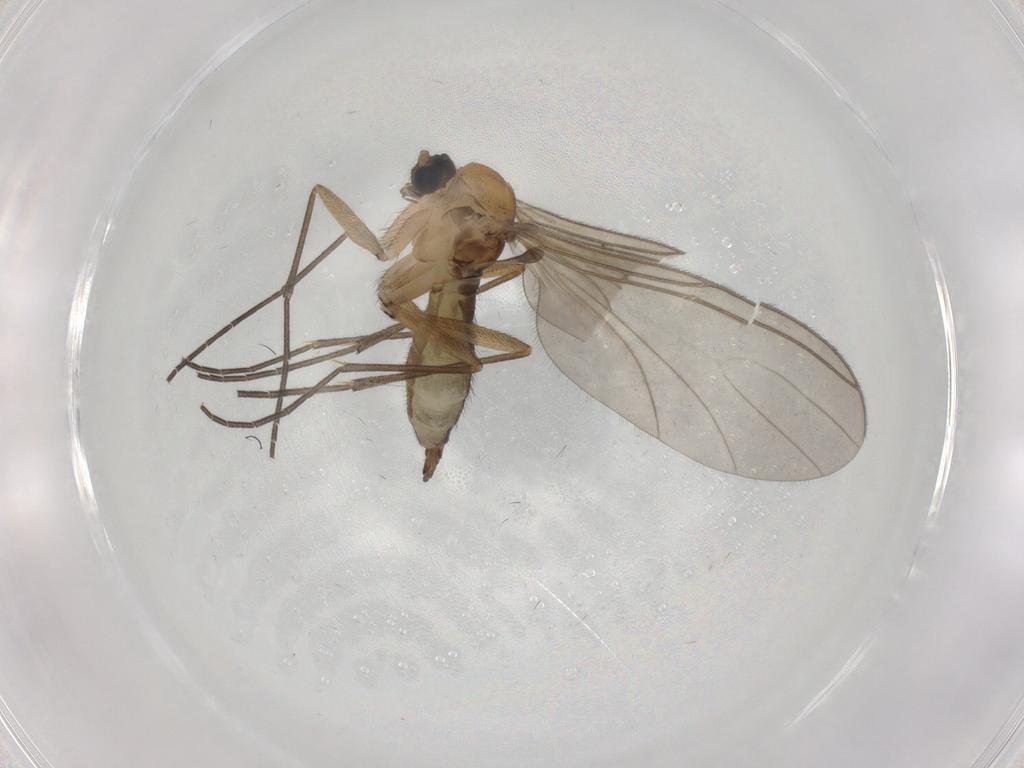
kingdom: Animalia
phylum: Arthropoda
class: Insecta
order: Diptera
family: Sciaridae
